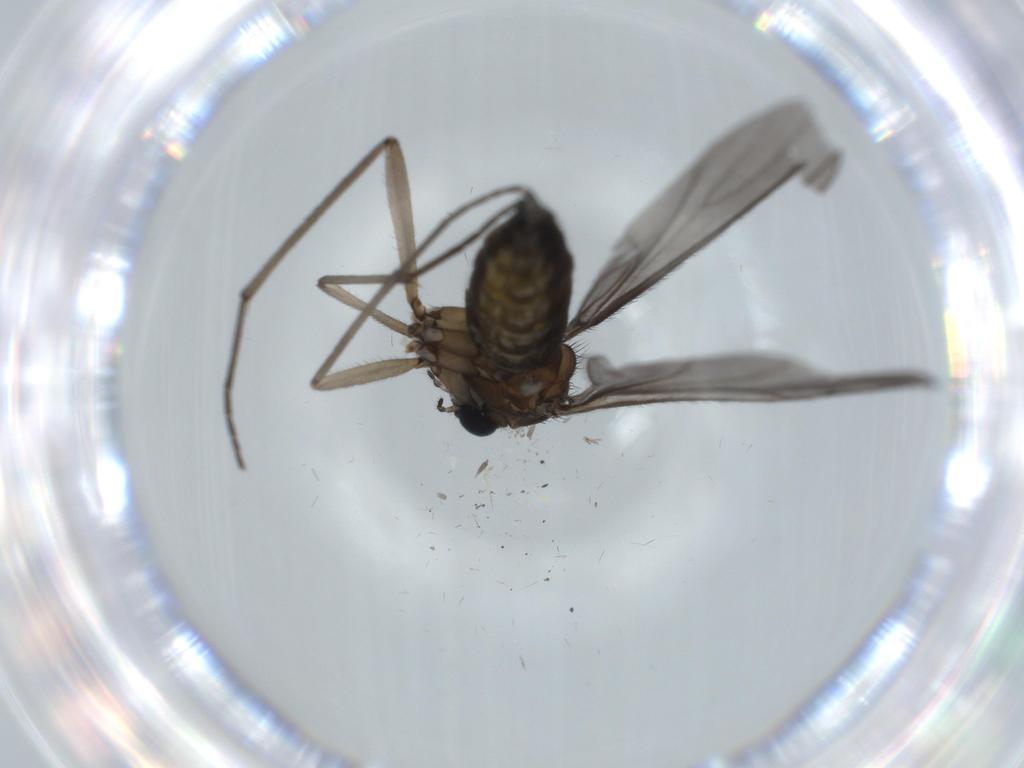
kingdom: Animalia
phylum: Arthropoda
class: Insecta
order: Diptera
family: Sciaridae
